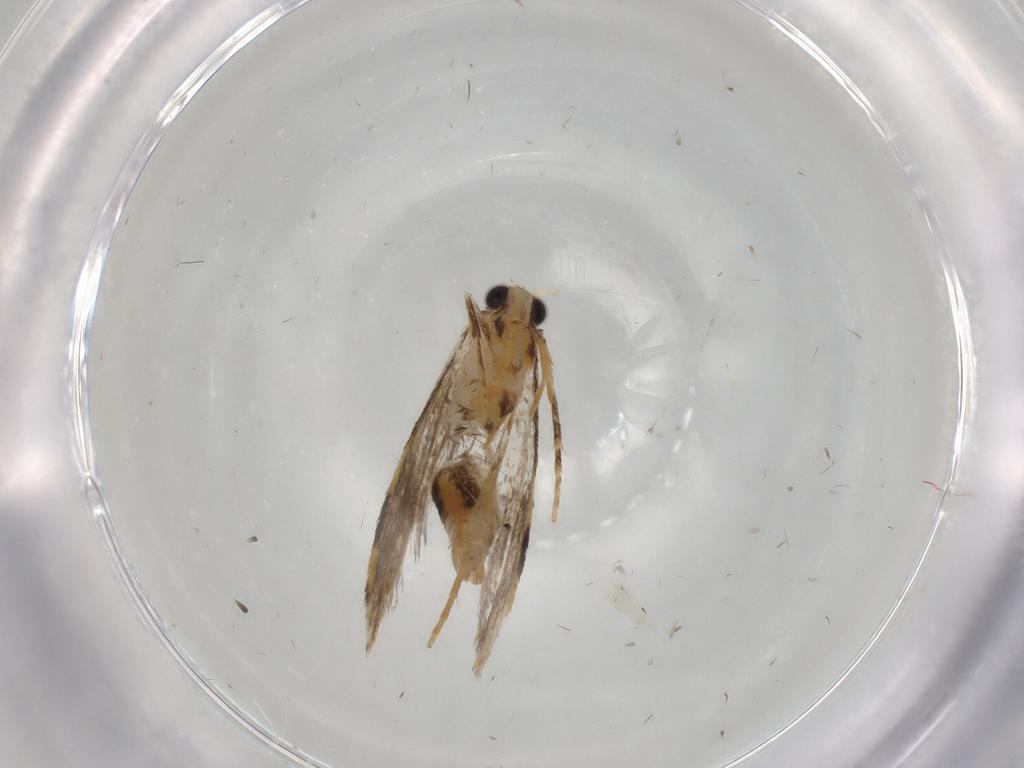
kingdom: Animalia
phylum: Arthropoda
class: Insecta
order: Lepidoptera
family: Tineidae
